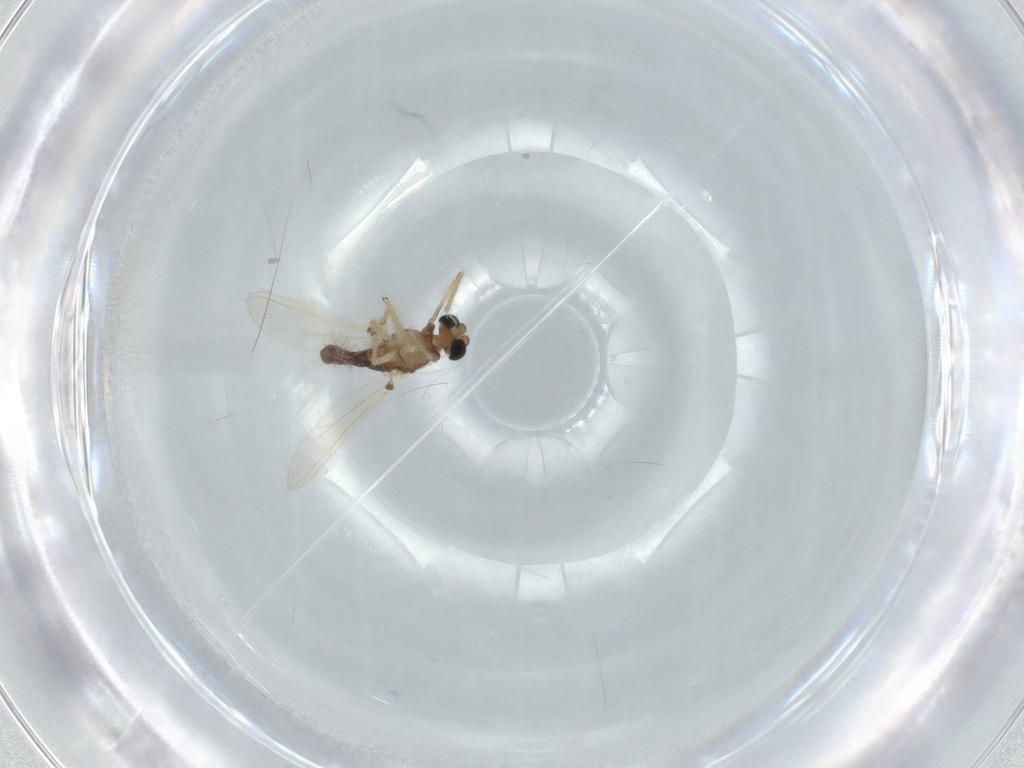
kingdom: Animalia
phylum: Arthropoda
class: Insecta
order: Diptera
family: Chironomidae
